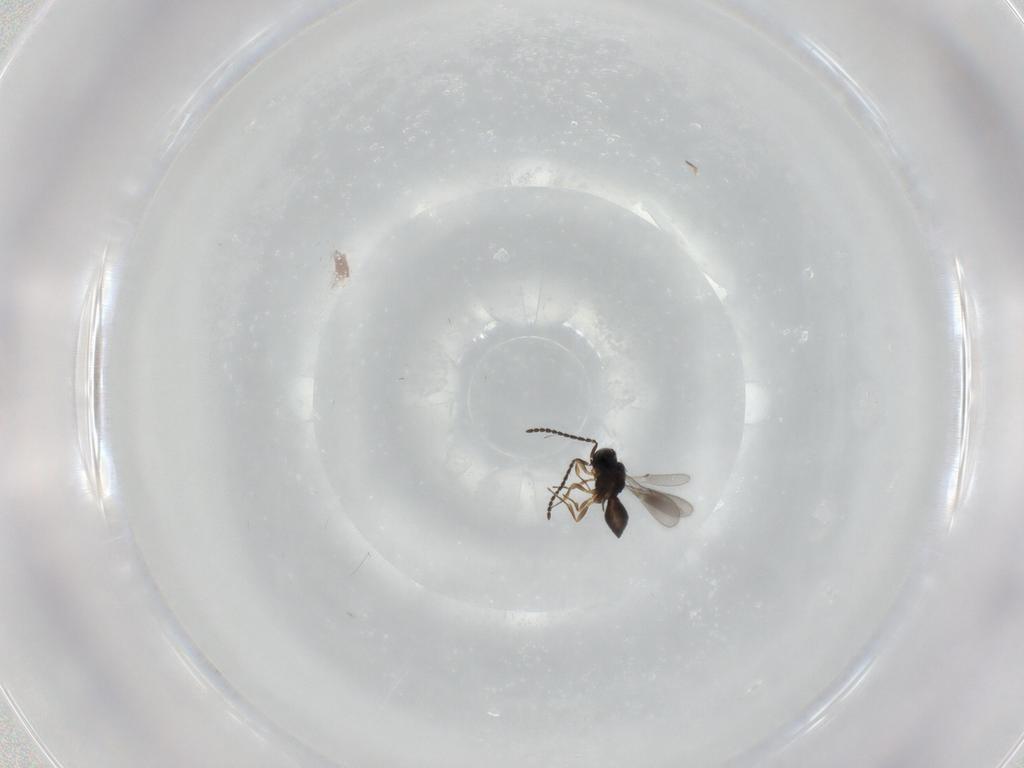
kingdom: Animalia
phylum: Arthropoda
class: Insecta
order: Hymenoptera
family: Scelionidae
